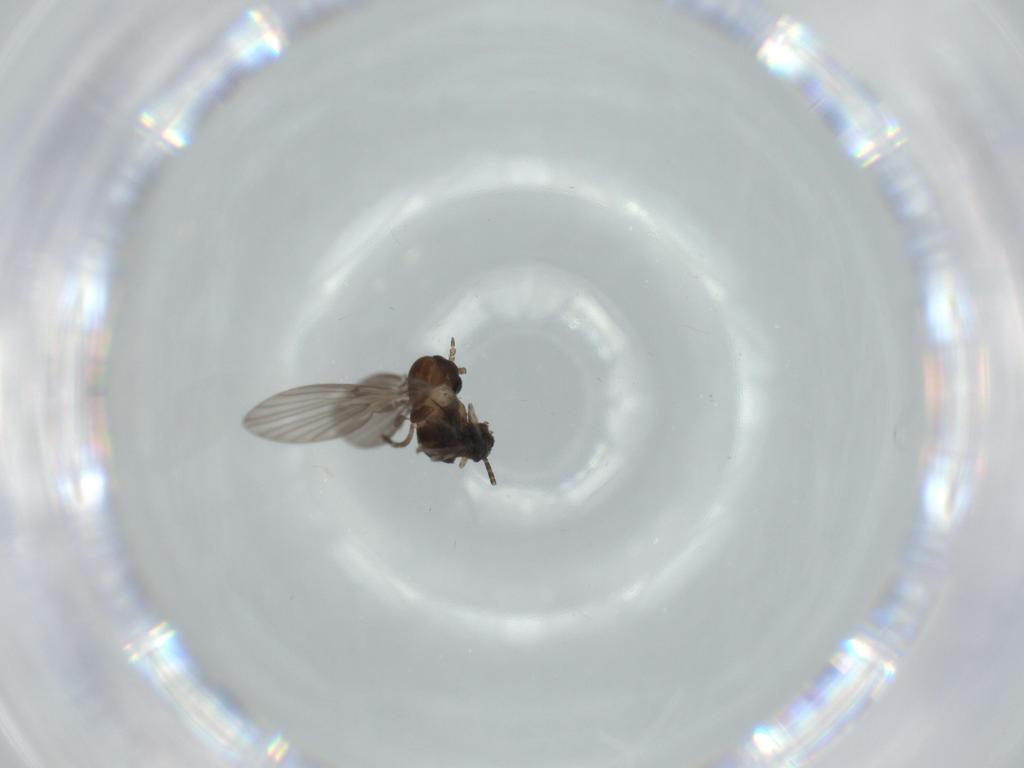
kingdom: Animalia
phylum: Arthropoda
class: Insecta
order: Diptera
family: Psychodidae
